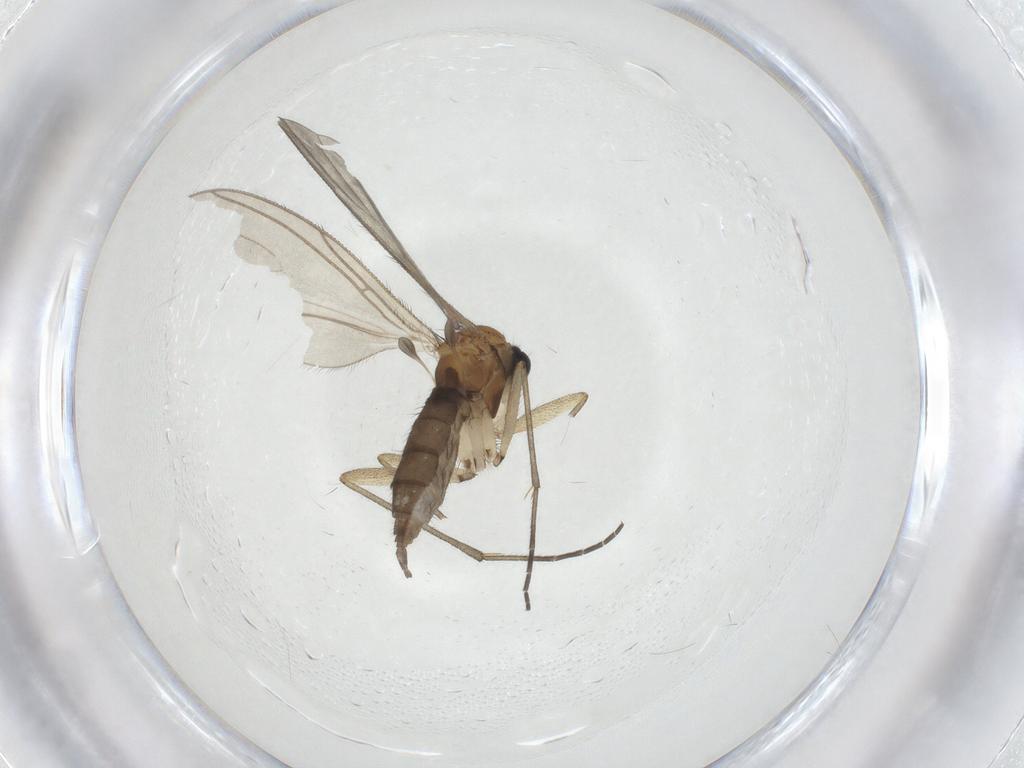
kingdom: Animalia
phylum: Arthropoda
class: Insecta
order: Diptera
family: Sciaridae
